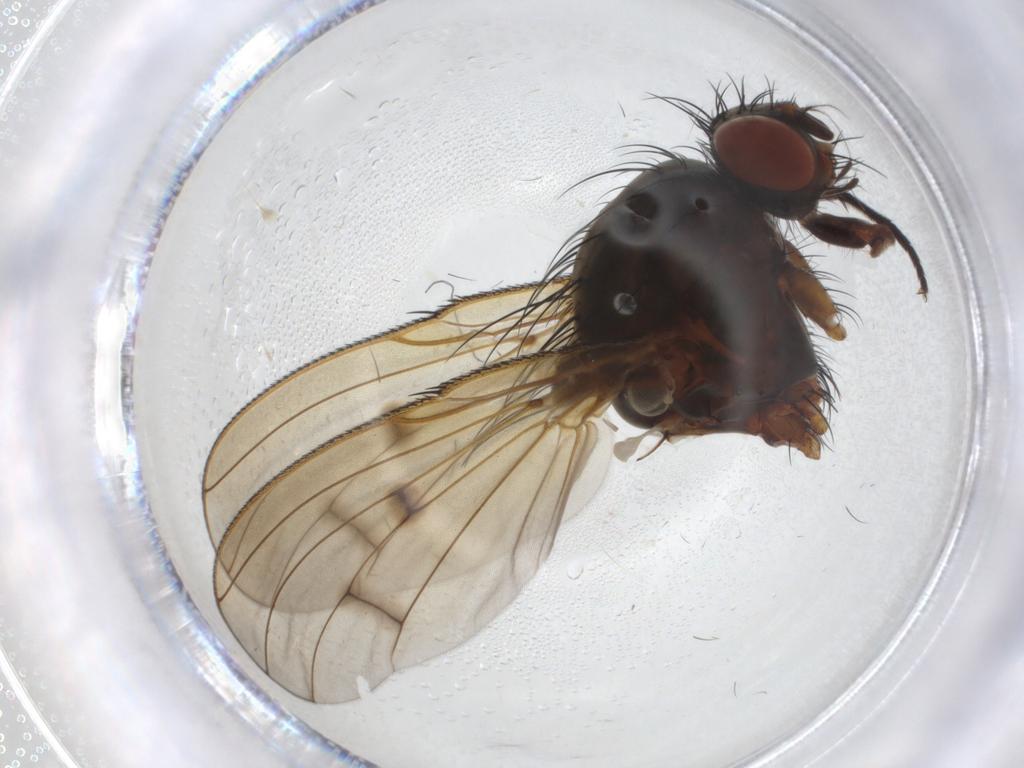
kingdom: Animalia
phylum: Arthropoda
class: Insecta
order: Diptera
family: Anthomyiidae
